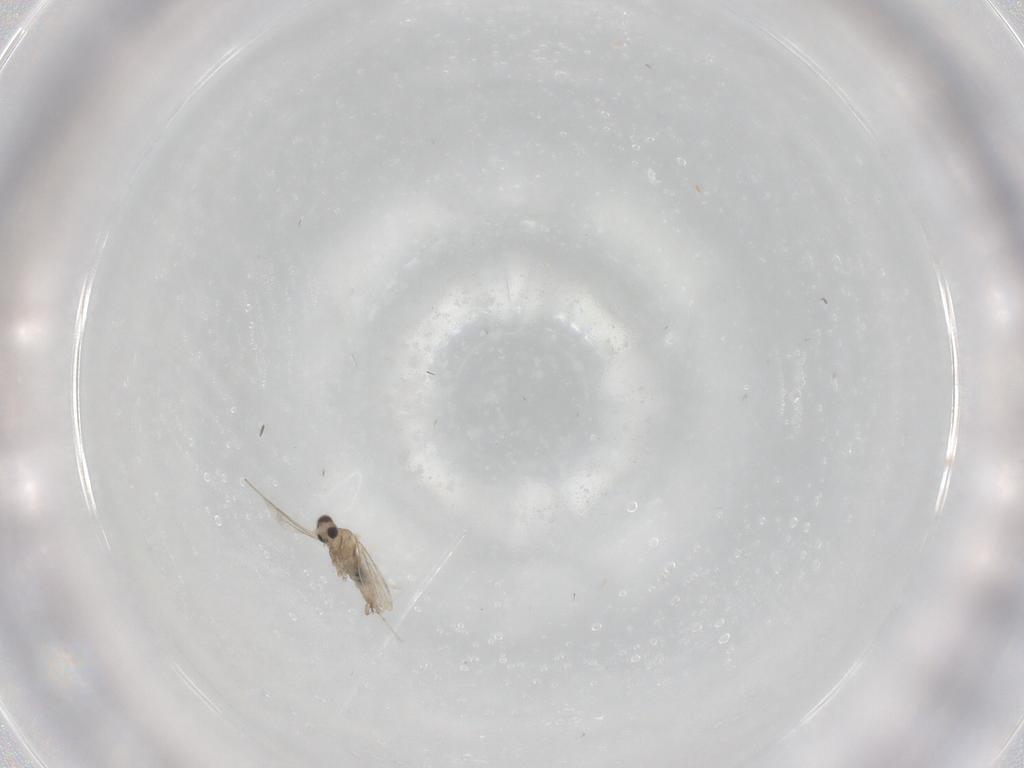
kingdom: Animalia
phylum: Arthropoda
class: Insecta
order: Diptera
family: Cecidomyiidae
